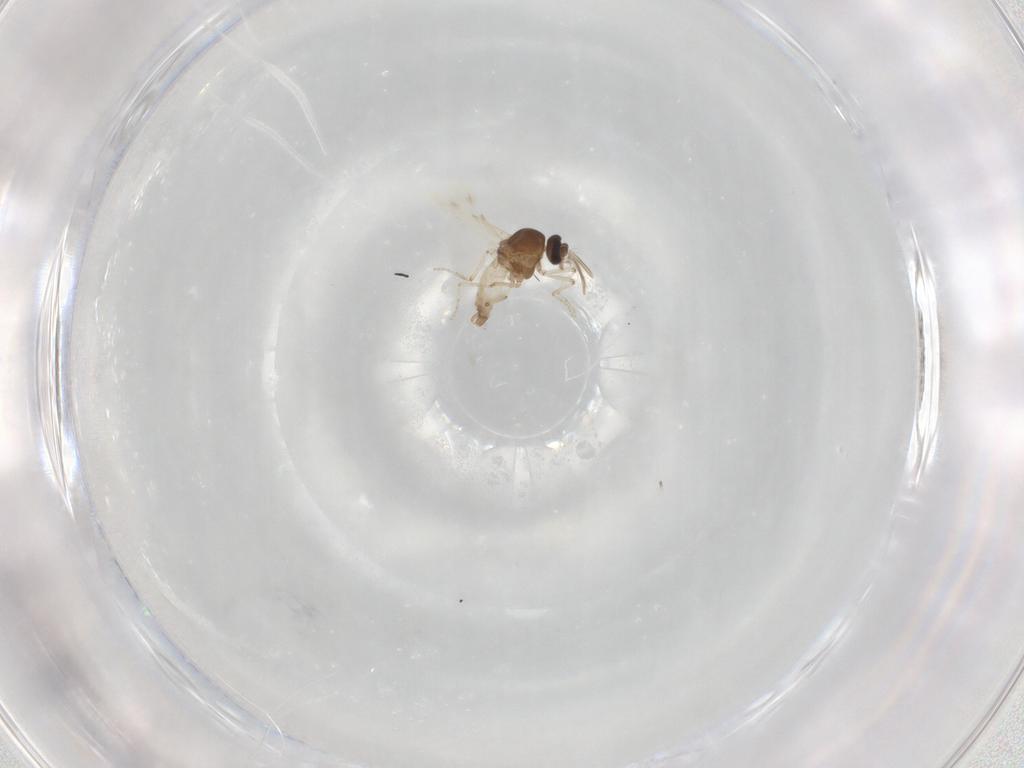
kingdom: Animalia
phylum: Arthropoda
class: Insecta
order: Diptera
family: Ceratopogonidae
